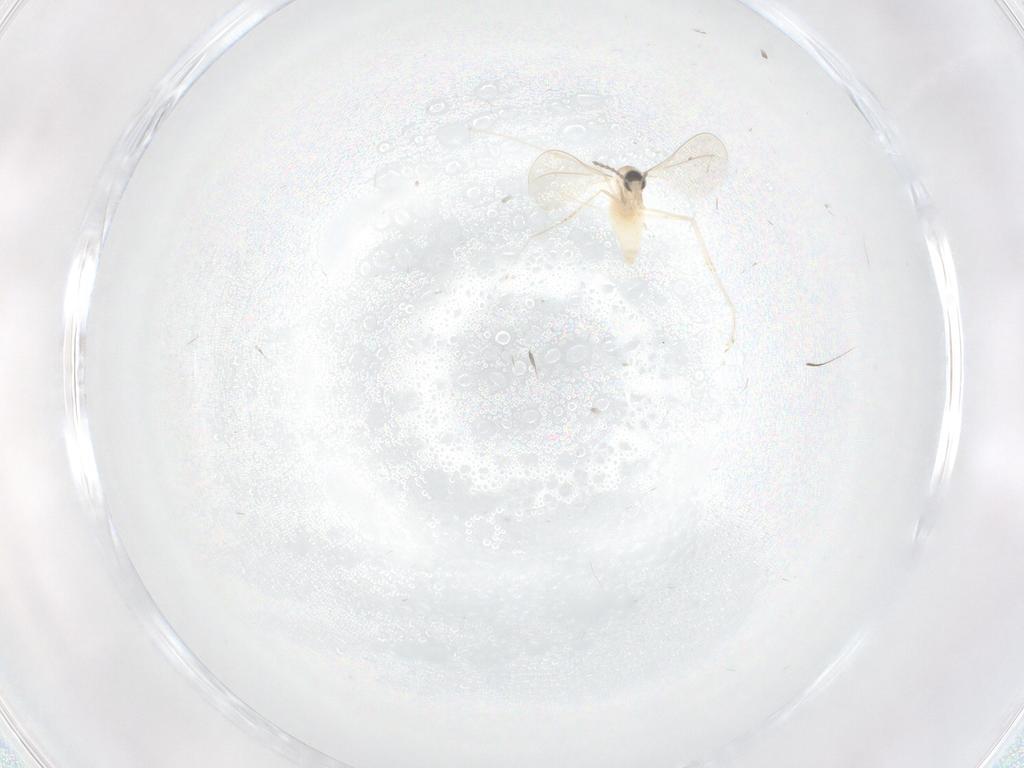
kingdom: Animalia
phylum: Arthropoda
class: Insecta
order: Diptera
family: Cecidomyiidae
